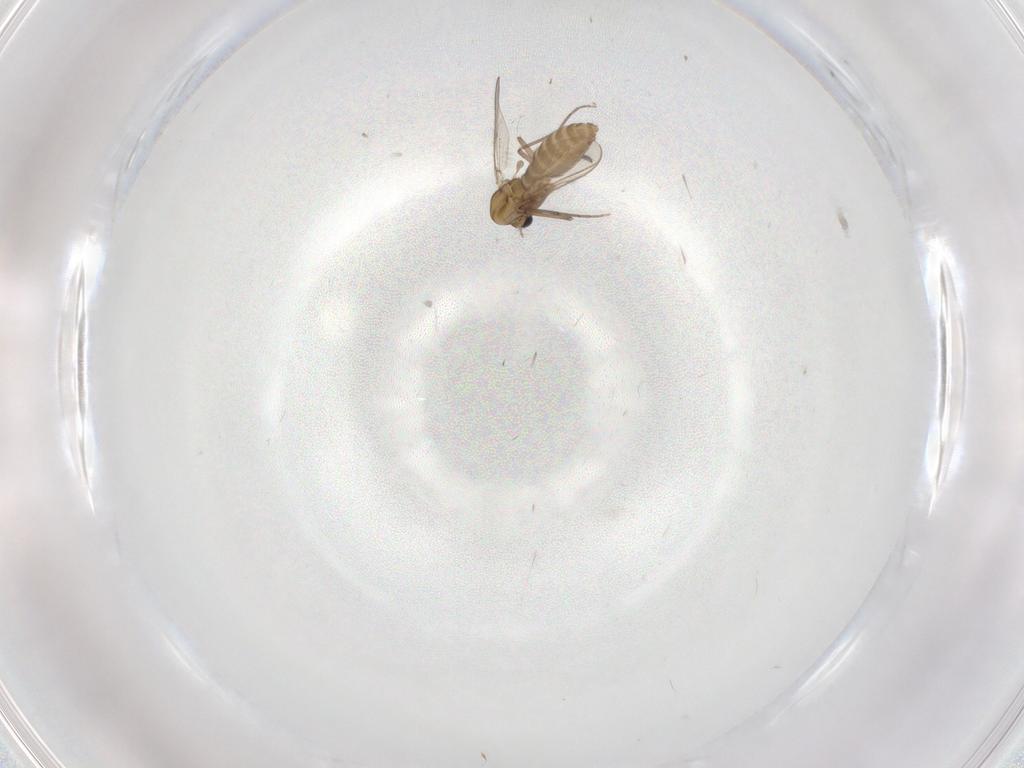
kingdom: Animalia
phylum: Arthropoda
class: Insecta
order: Diptera
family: Chironomidae
